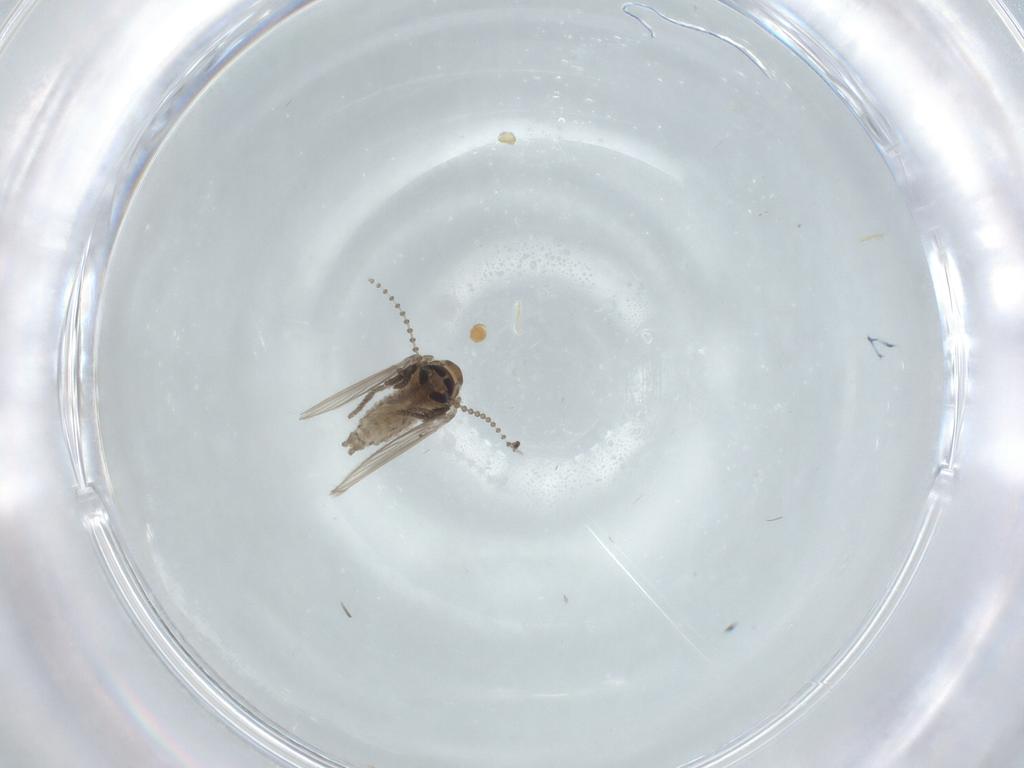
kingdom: Animalia
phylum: Arthropoda
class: Insecta
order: Diptera
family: Psychodidae
